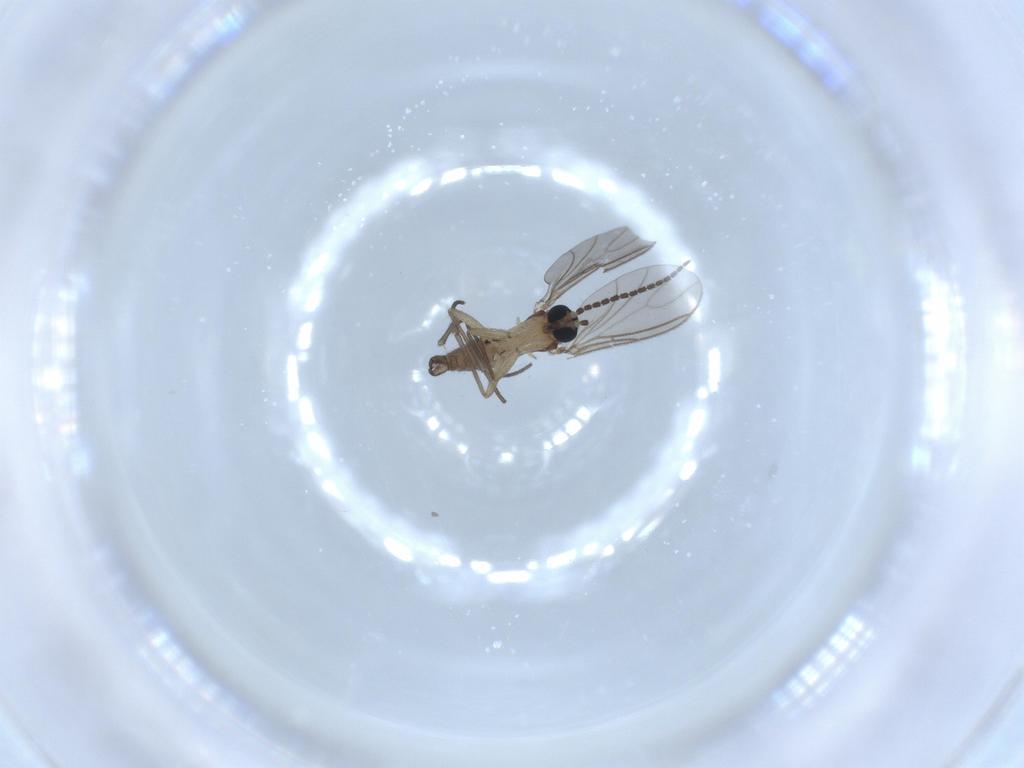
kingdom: Animalia
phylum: Arthropoda
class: Insecta
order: Diptera
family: Sciaridae
